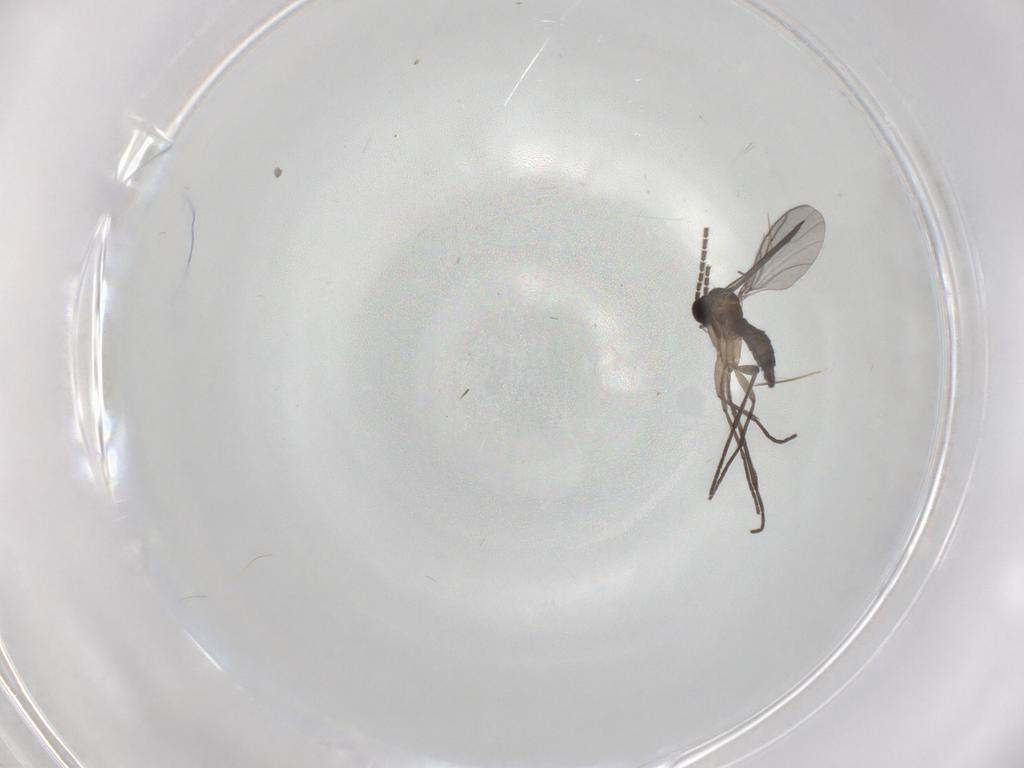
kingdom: Animalia
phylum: Arthropoda
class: Insecta
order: Diptera
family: Sciaridae
